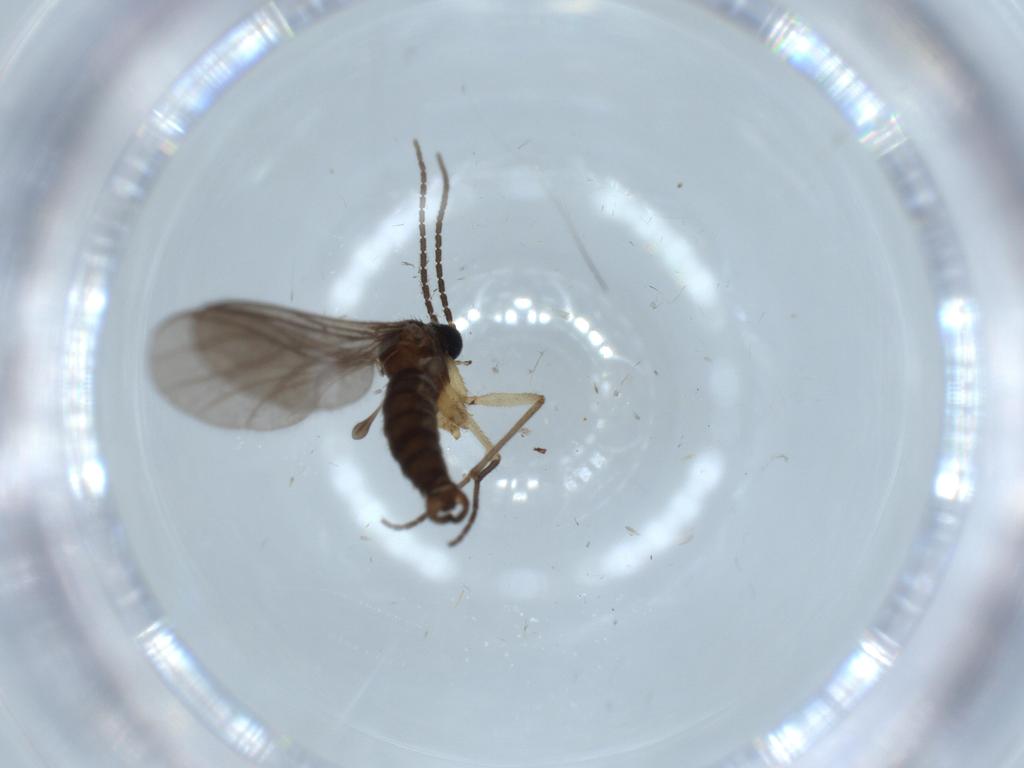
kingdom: Animalia
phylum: Arthropoda
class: Insecta
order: Diptera
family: Sciaridae
